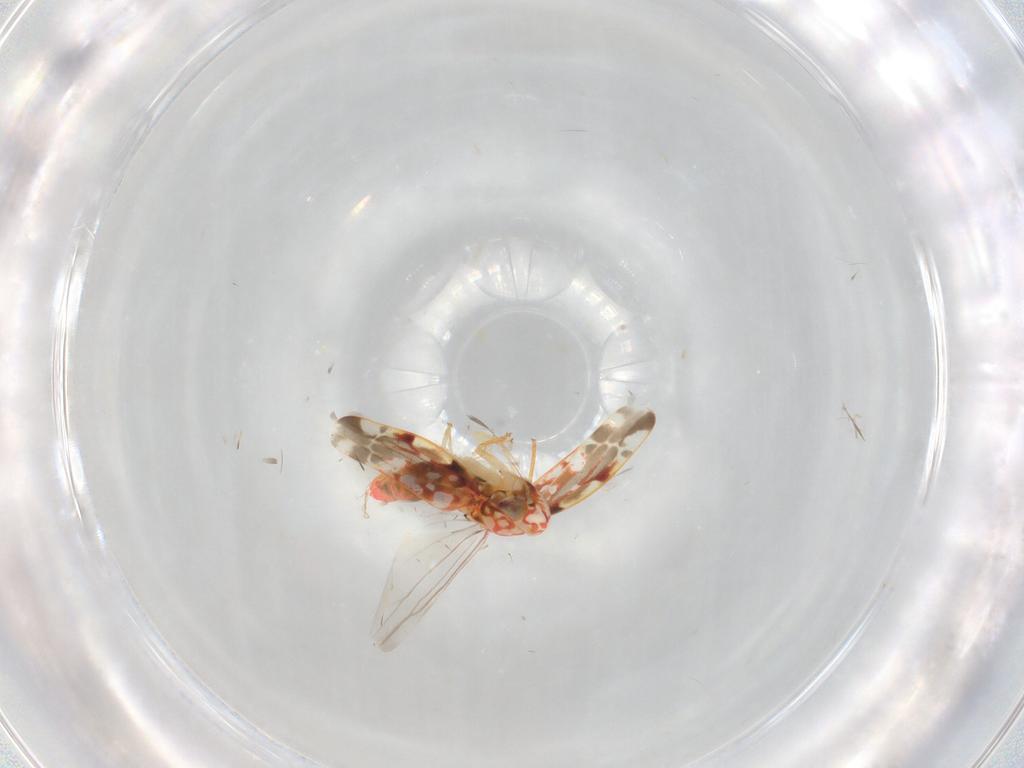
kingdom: Animalia
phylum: Arthropoda
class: Insecta
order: Hemiptera
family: Cicadellidae
